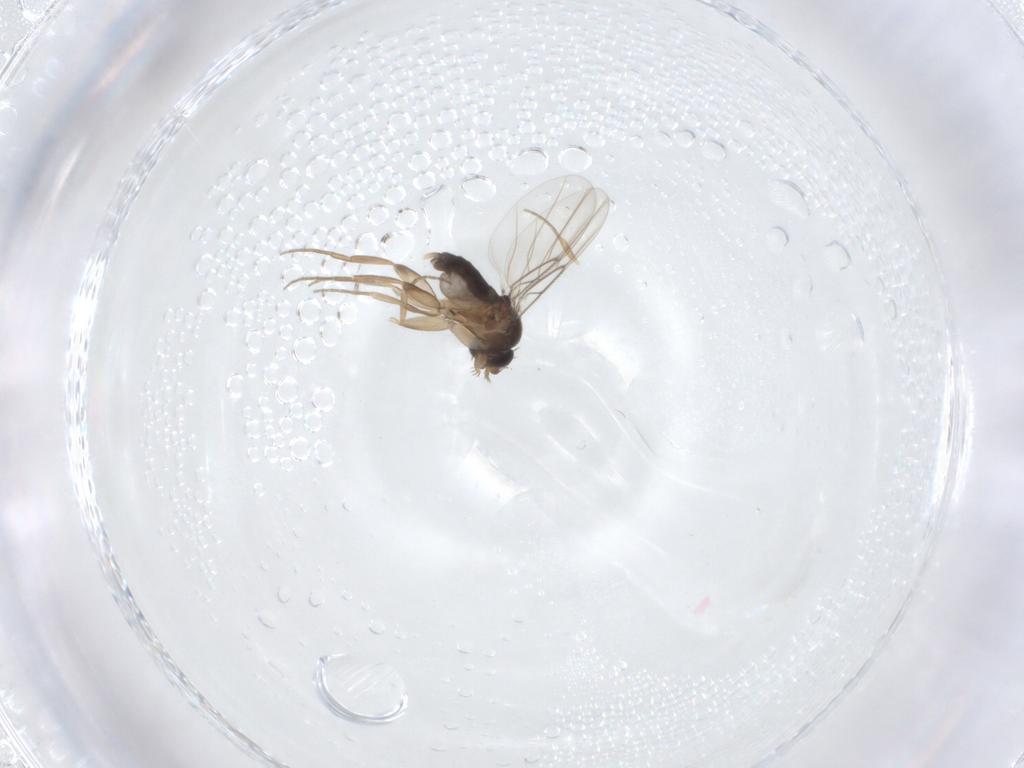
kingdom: Animalia
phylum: Arthropoda
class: Insecta
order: Diptera
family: Phoridae
